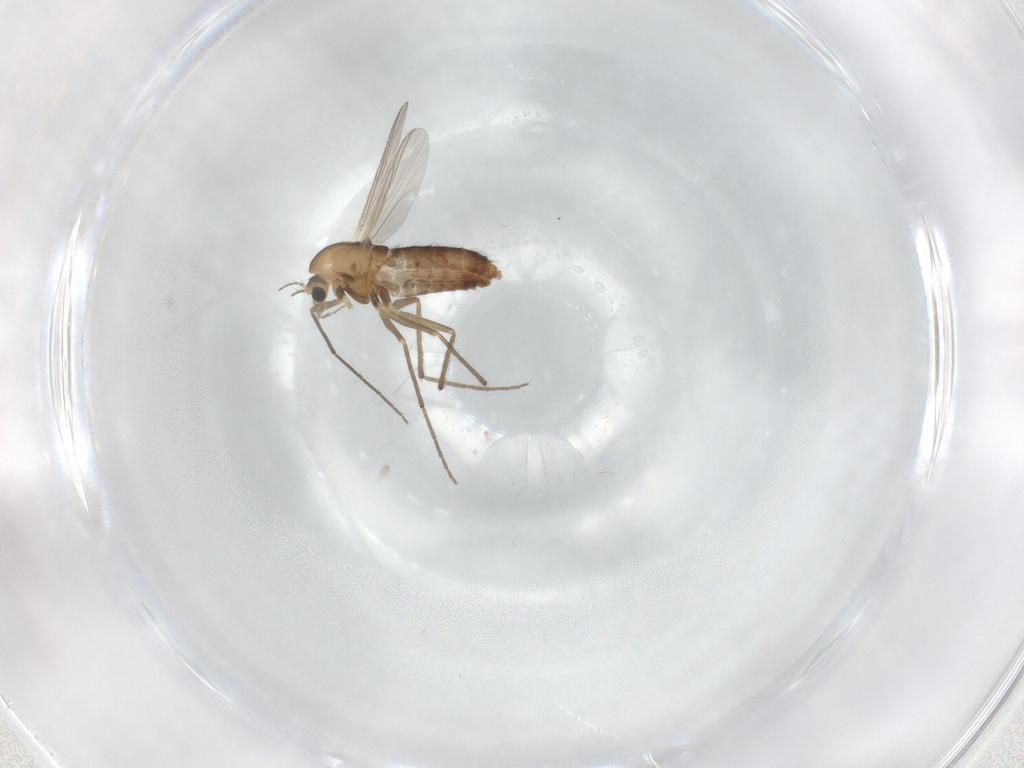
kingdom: Animalia
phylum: Arthropoda
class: Insecta
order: Diptera
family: Chironomidae
